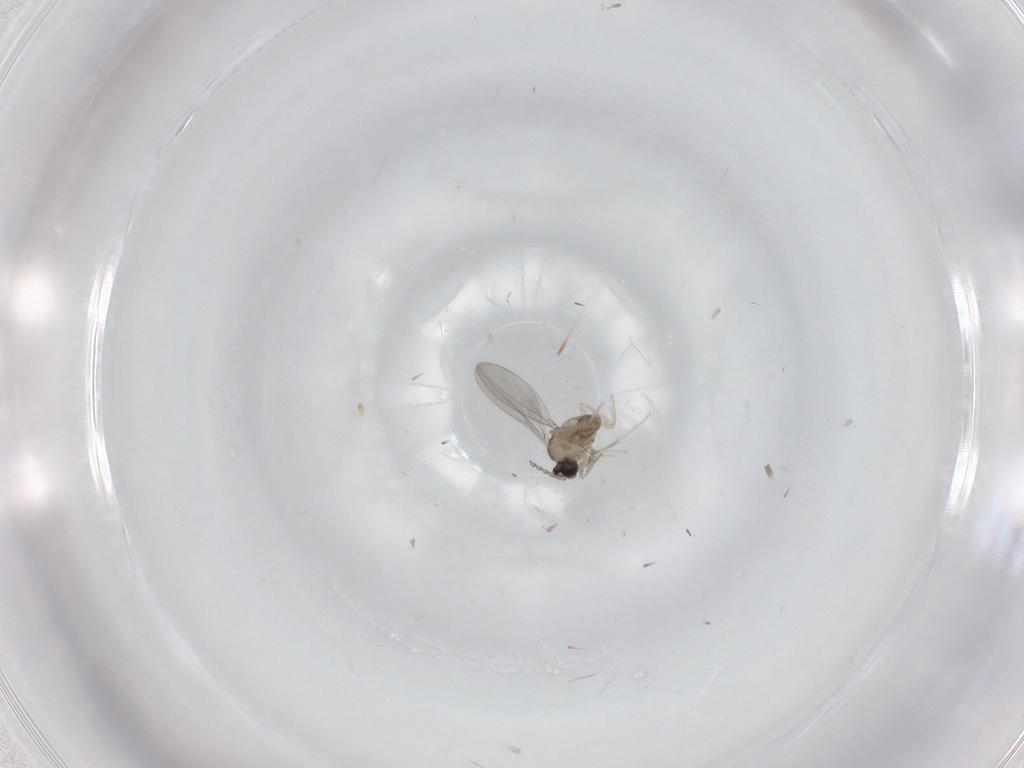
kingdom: Animalia
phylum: Arthropoda
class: Insecta
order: Diptera
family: Cecidomyiidae
